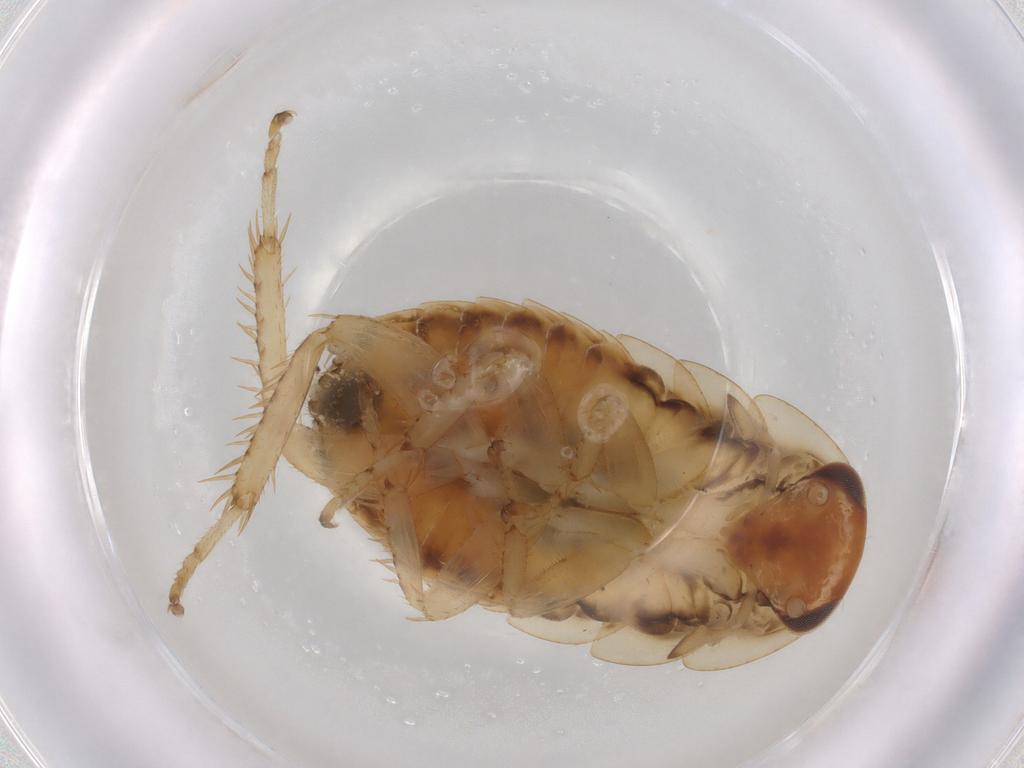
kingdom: Animalia
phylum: Arthropoda
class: Insecta
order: Blattodea
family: Ectobiidae
